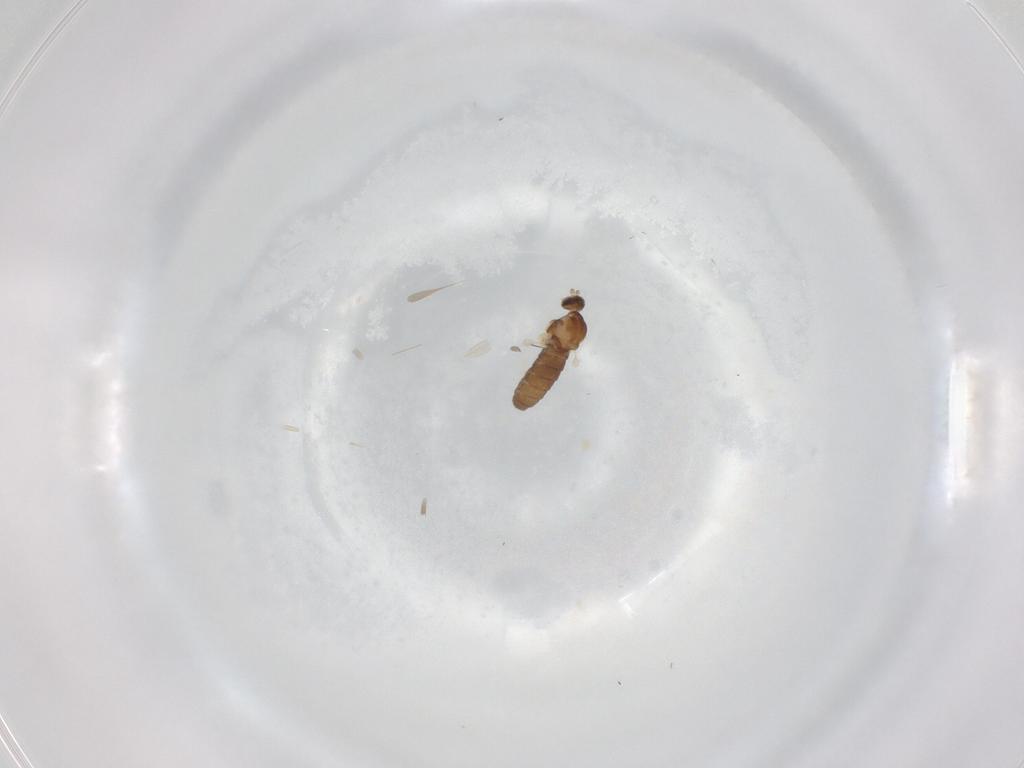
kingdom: Animalia
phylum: Arthropoda
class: Insecta
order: Diptera
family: Cecidomyiidae
